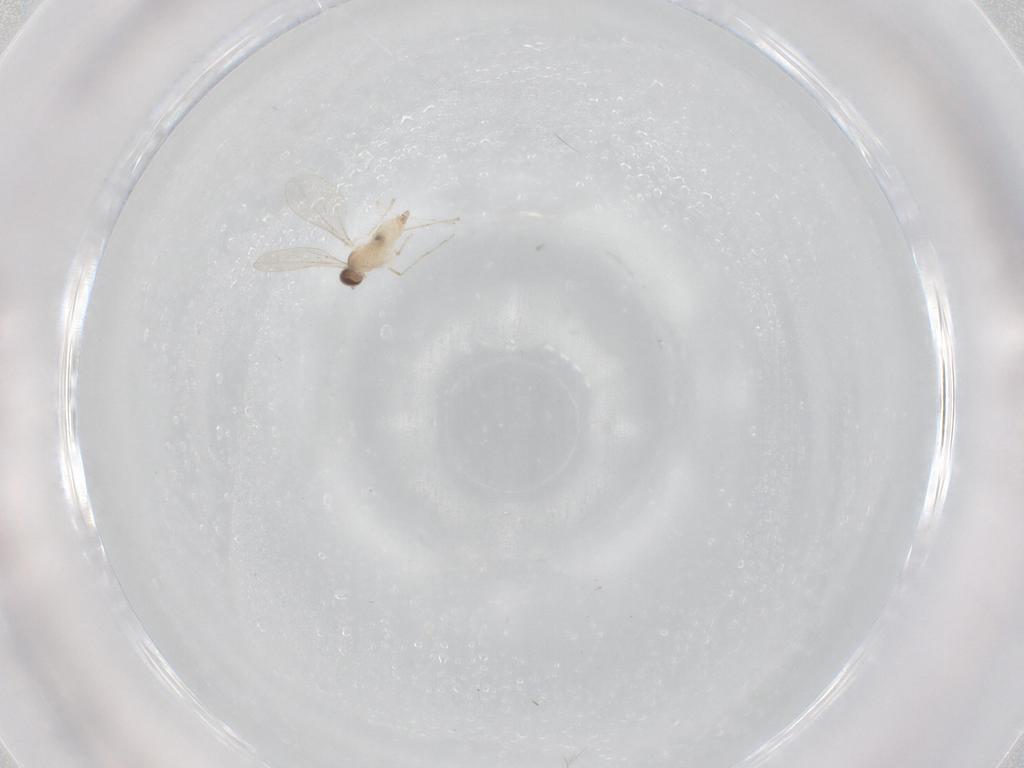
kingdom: Animalia
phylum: Arthropoda
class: Insecta
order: Diptera
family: Cecidomyiidae
